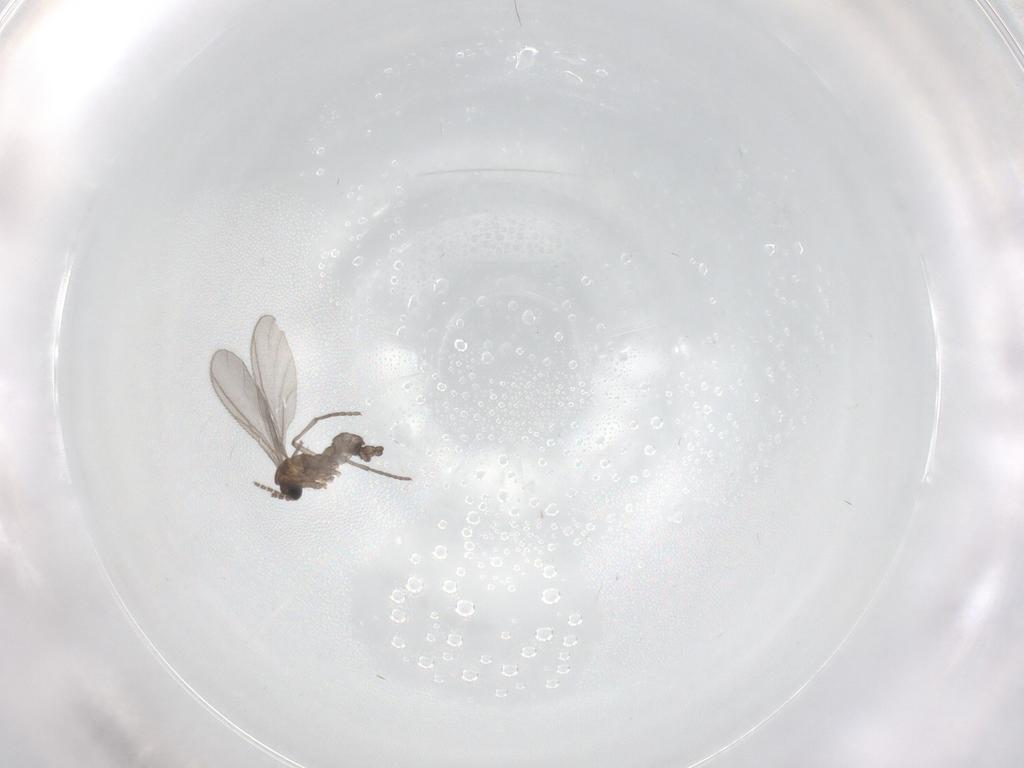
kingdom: Animalia
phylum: Arthropoda
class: Insecta
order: Diptera
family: Sciaridae
